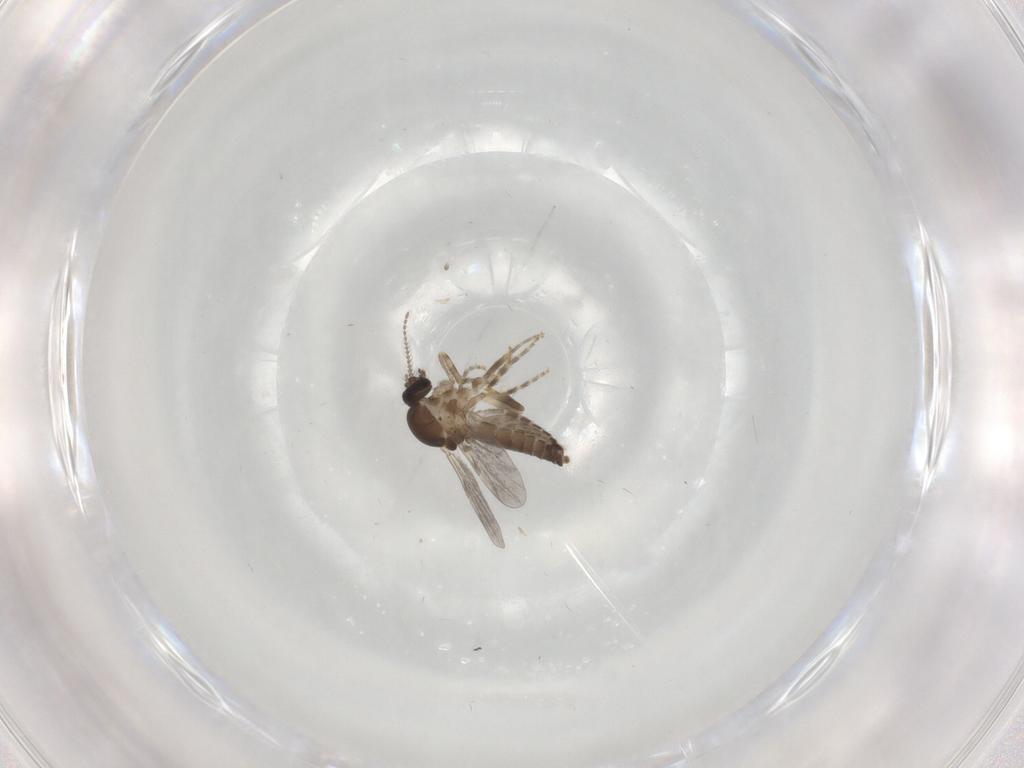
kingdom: Animalia
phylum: Arthropoda
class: Insecta
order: Diptera
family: Ceratopogonidae
